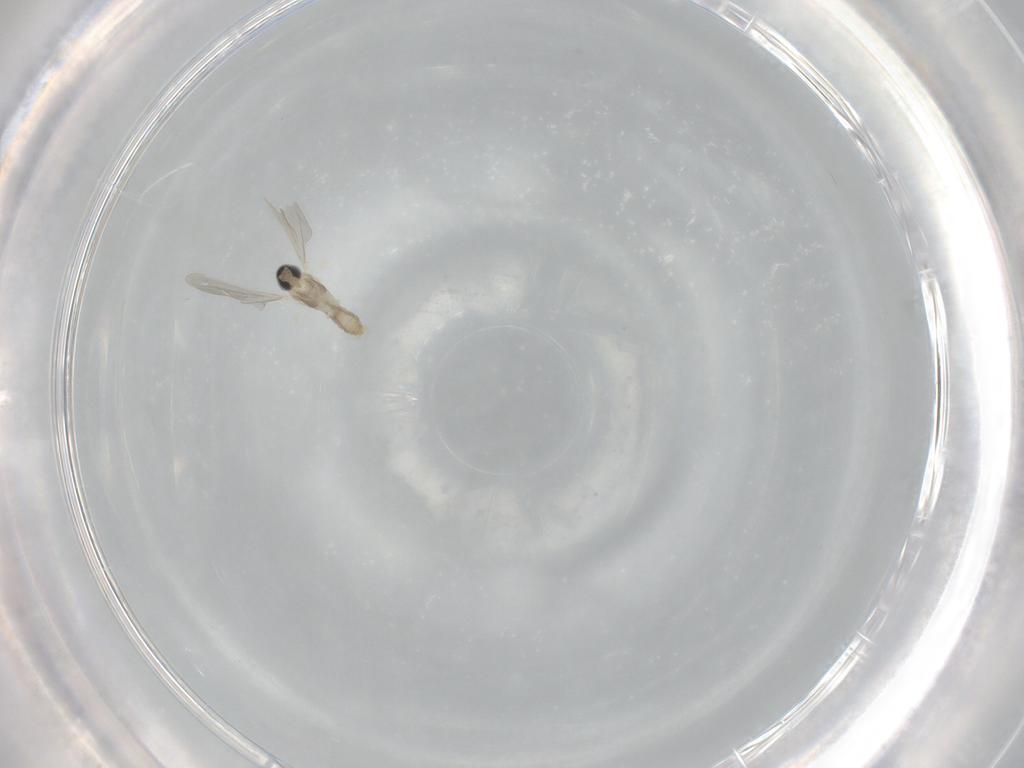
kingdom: Animalia
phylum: Arthropoda
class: Insecta
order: Diptera
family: Cecidomyiidae
